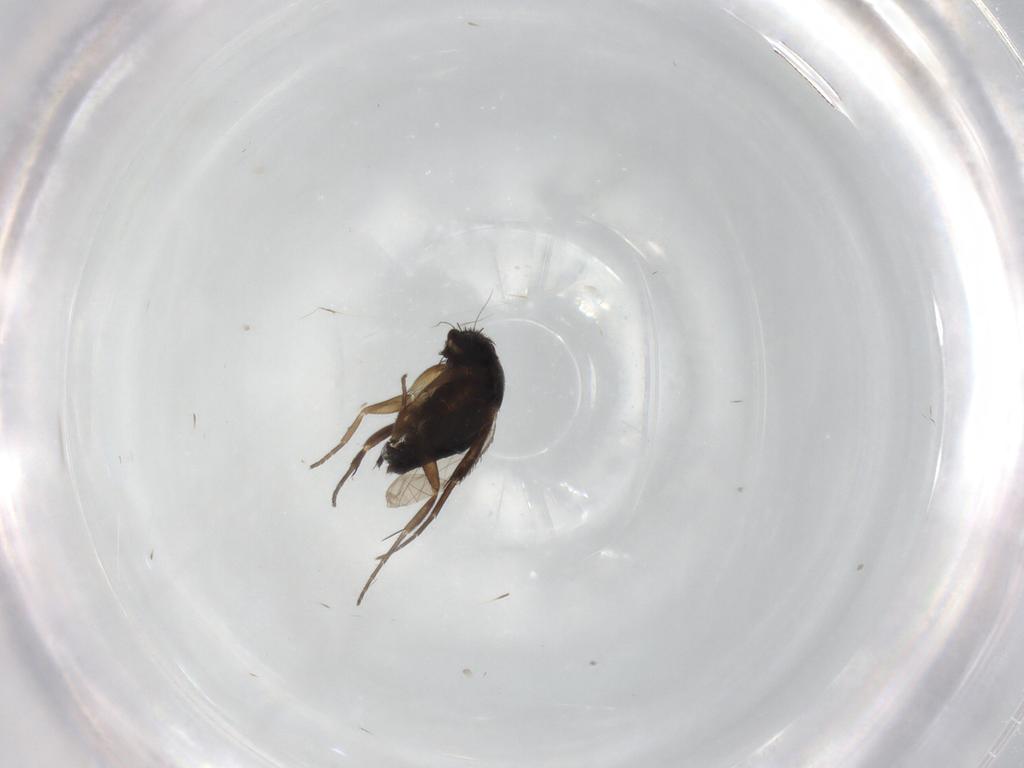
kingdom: Animalia
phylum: Arthropoda
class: Insecta
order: Diptera
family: Phoridae
